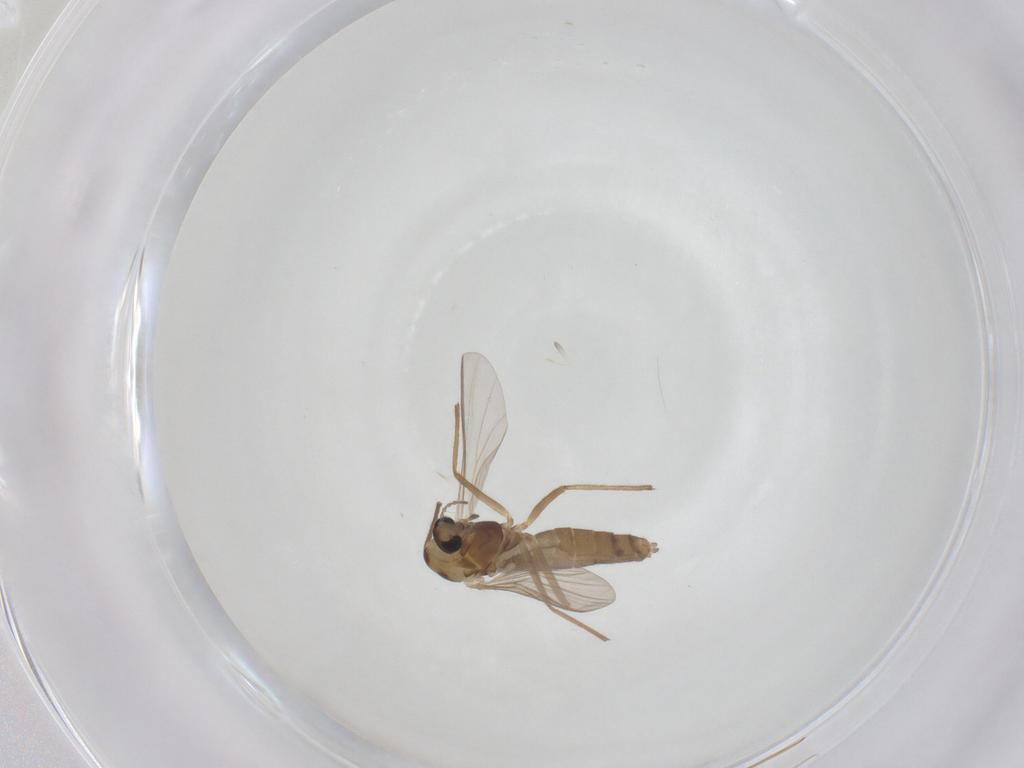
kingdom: Animalia
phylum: Arthropoda
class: Insecta
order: Diptera
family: Chironomidae
